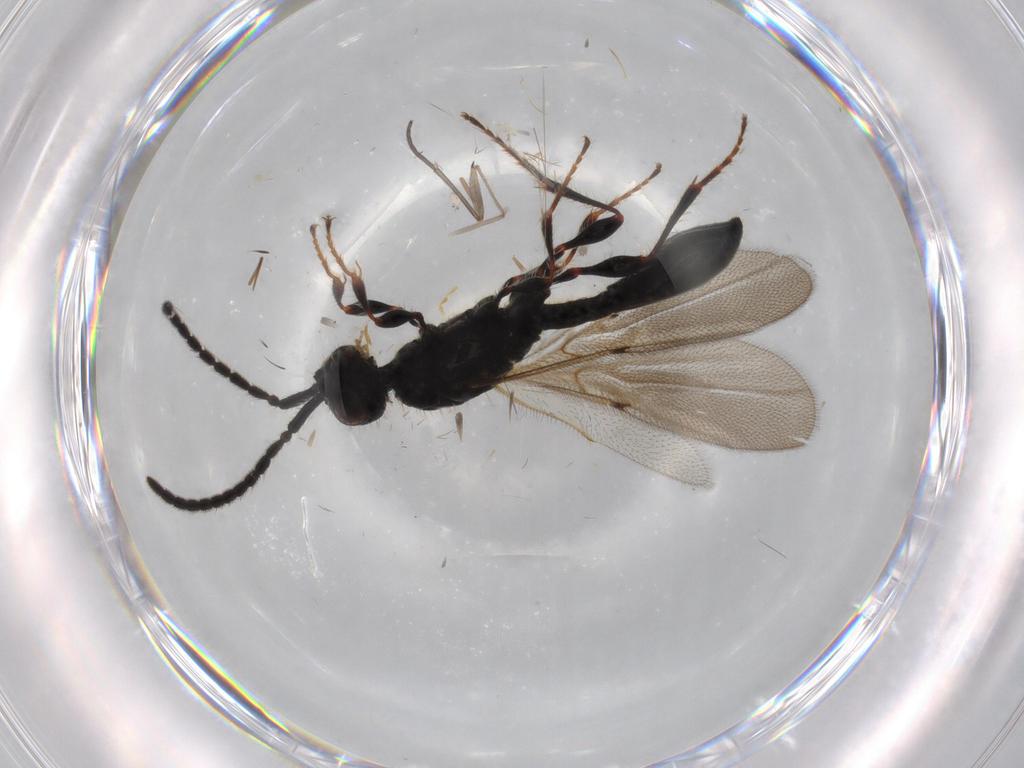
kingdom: Animalia
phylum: Arthropoda
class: Insecta
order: Hymenoptera
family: Diapriidae
